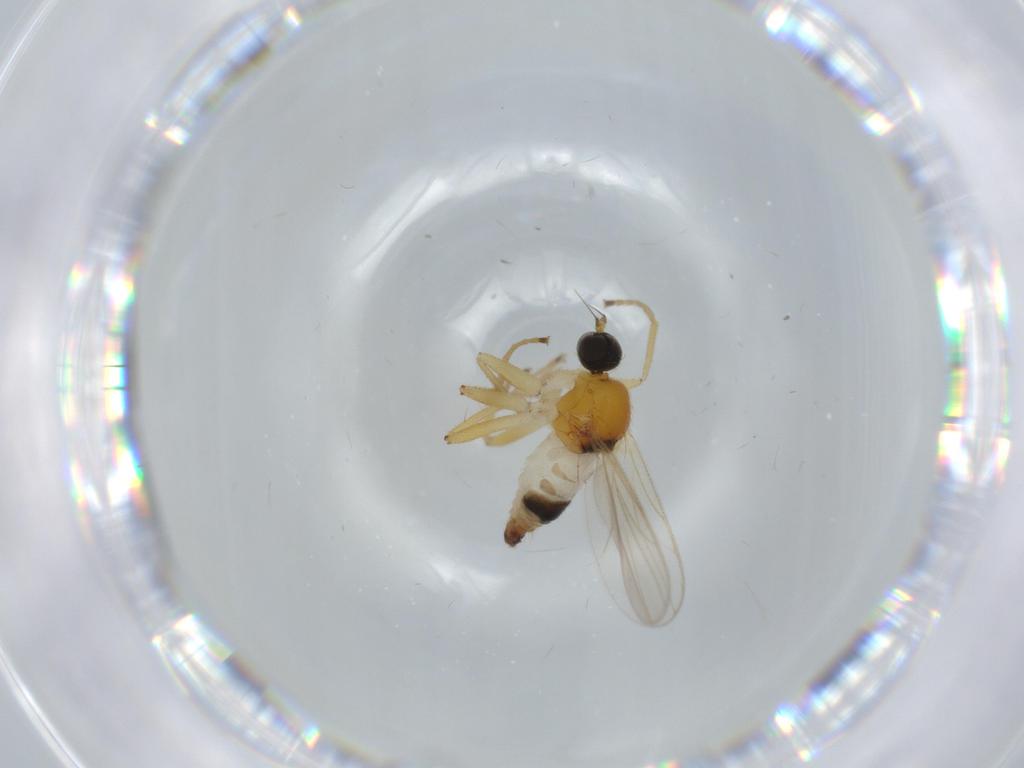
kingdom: Animalia
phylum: Arthropoda
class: Insecta
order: Diptera
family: Hybotidae
